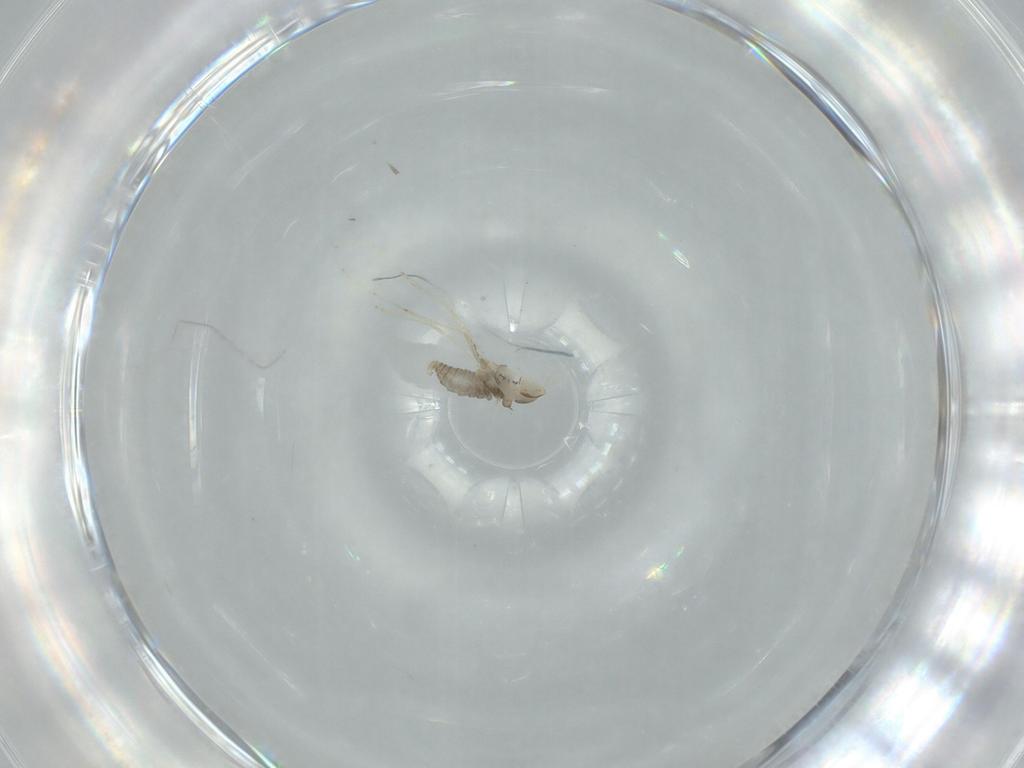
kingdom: Animalia
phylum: Arthropoda
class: Insecta
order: Diptera
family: Cecidomyiidae
